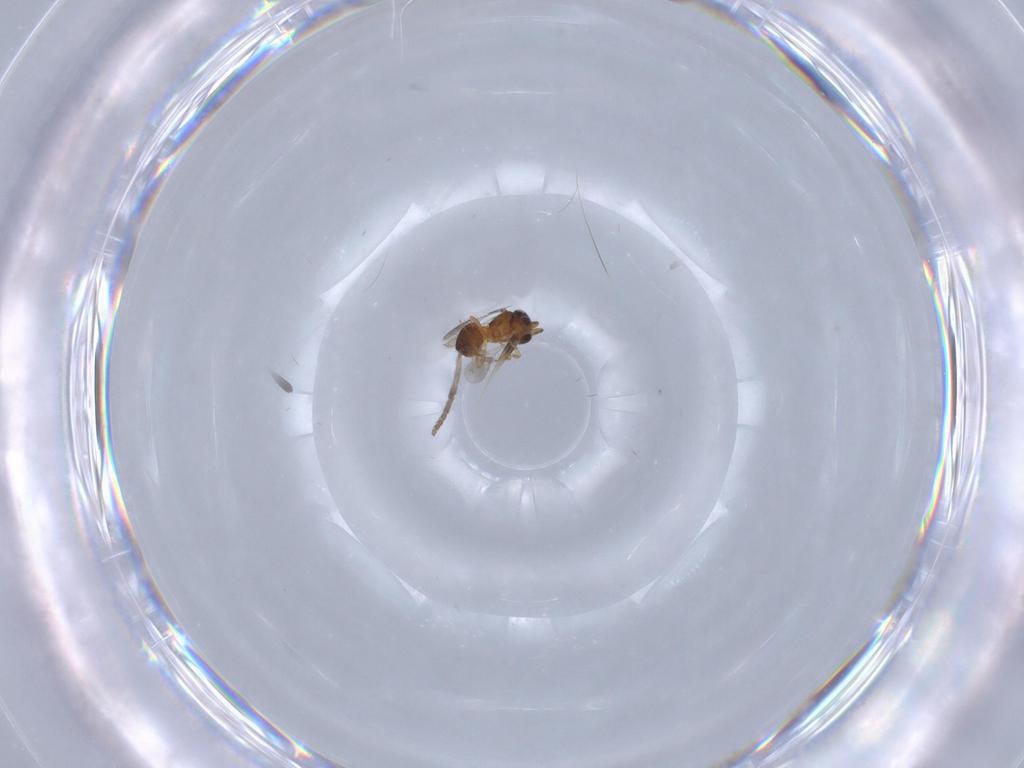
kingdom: Animalia
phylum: Arthropoda
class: Insecta
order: Hymenoptera
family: Scelionidae
